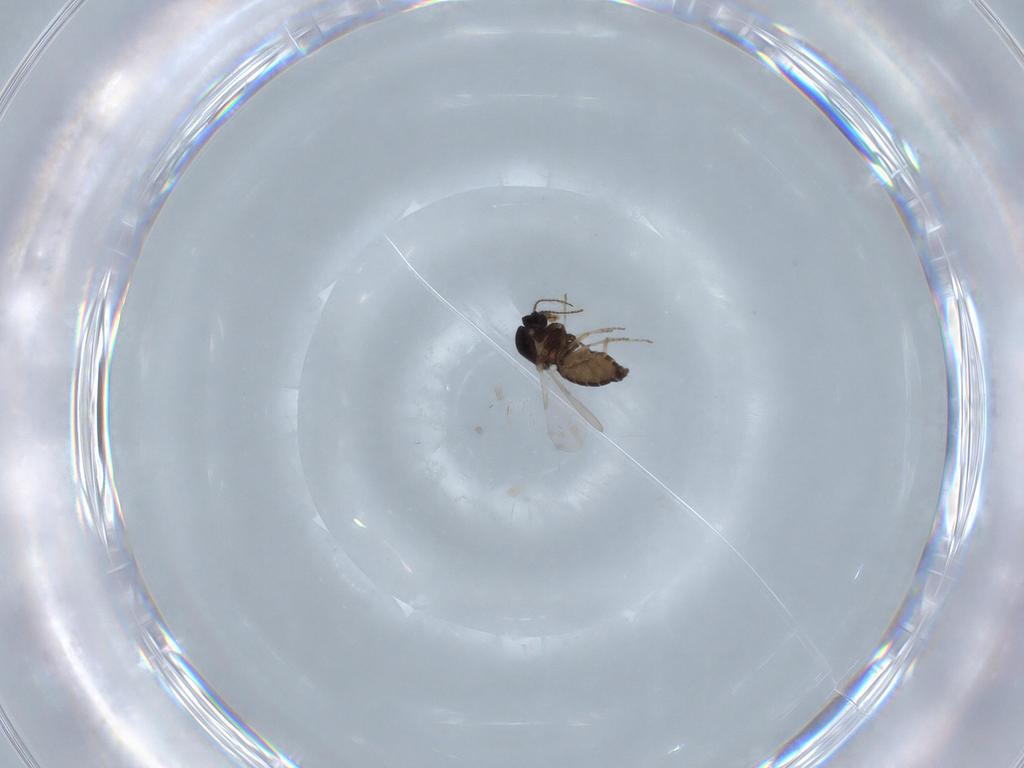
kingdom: Animalia
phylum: Arthropoda
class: Insecta
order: Diptera
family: Ceratopogonidae
